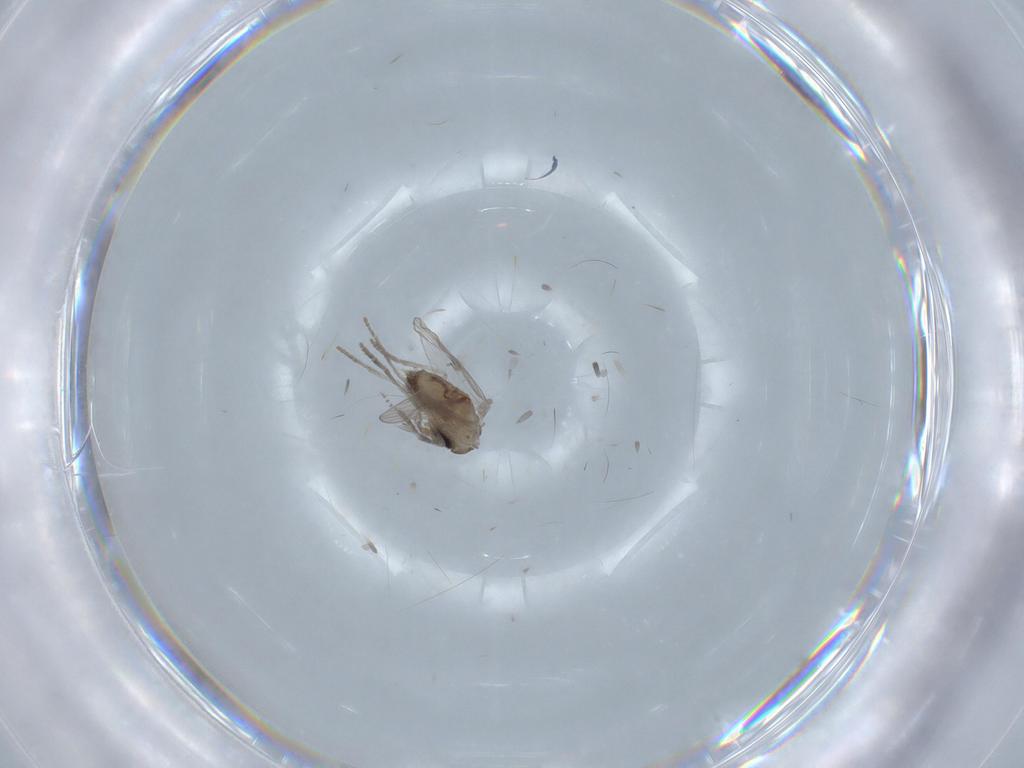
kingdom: Animalia
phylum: Arthropoda
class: Insecta
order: Diptera
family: Psychodidae
